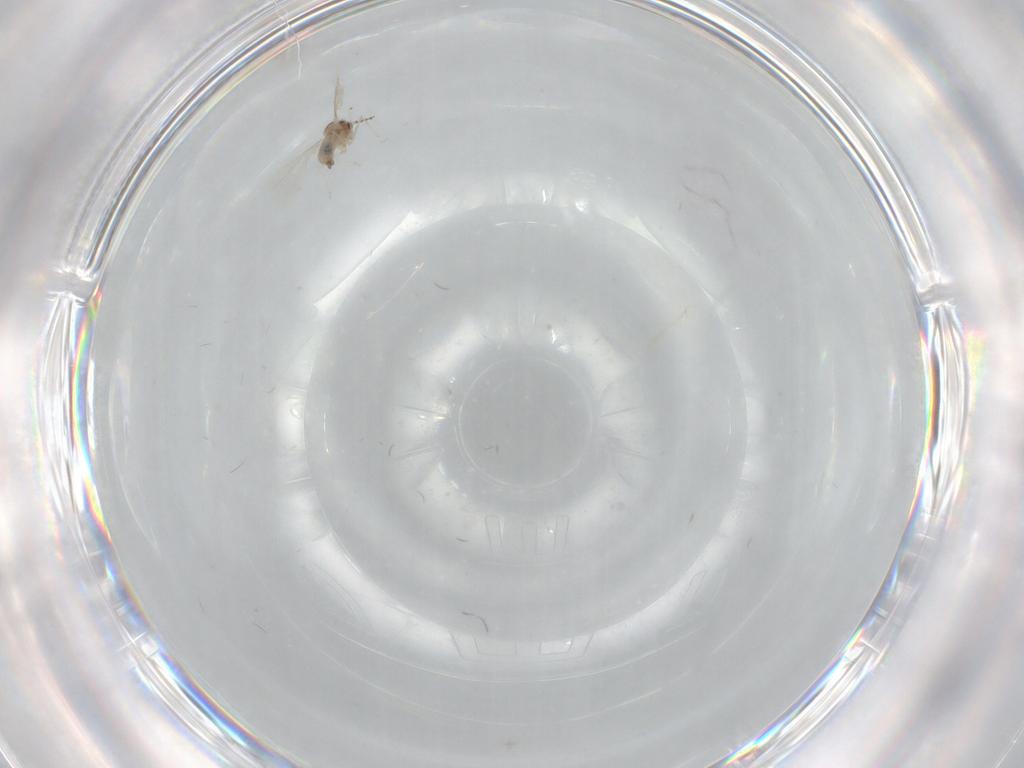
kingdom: Animalia
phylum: Arthropoda
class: Insecta
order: Diptera
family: Cecidomyiidae
